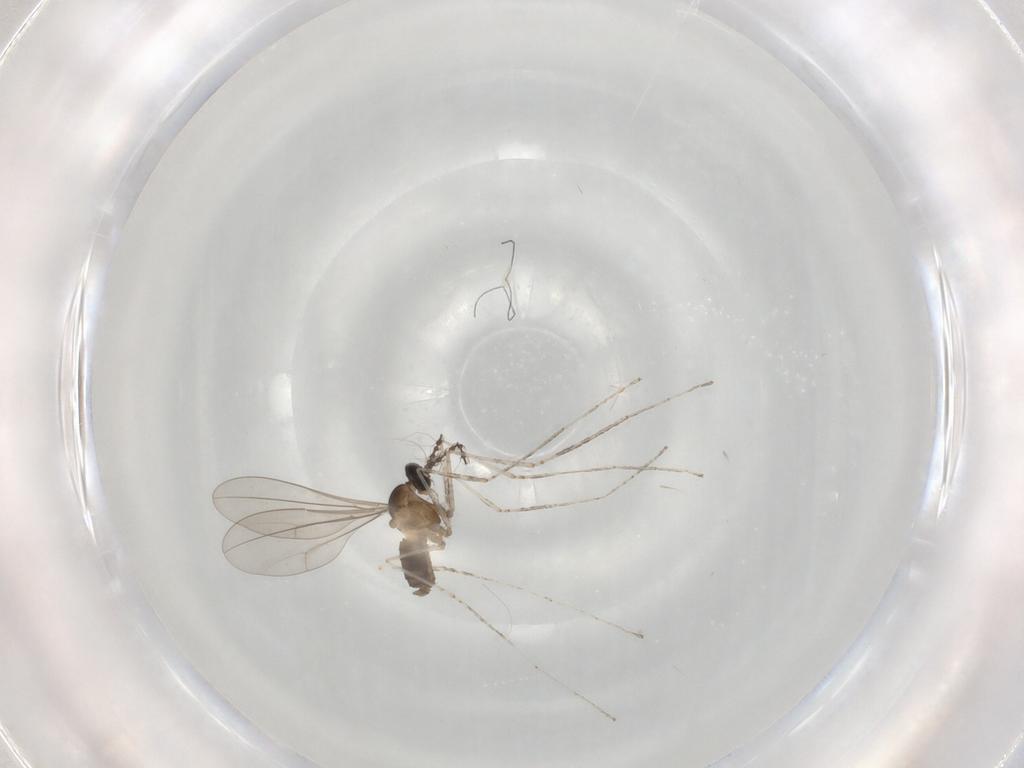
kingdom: Animalia
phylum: Arthropoda
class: Insecta
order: Diptera
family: Cecidomyiidae
